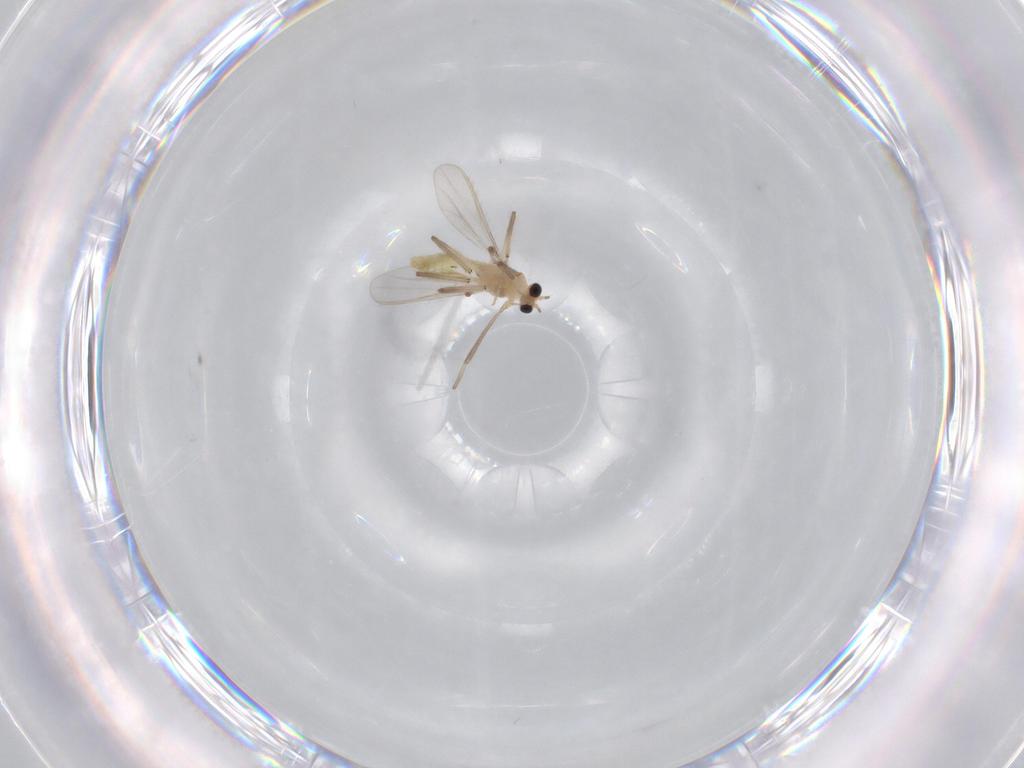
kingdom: Animalia
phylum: Arthropoda
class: Insecta
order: Diptera
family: Chironomidae
